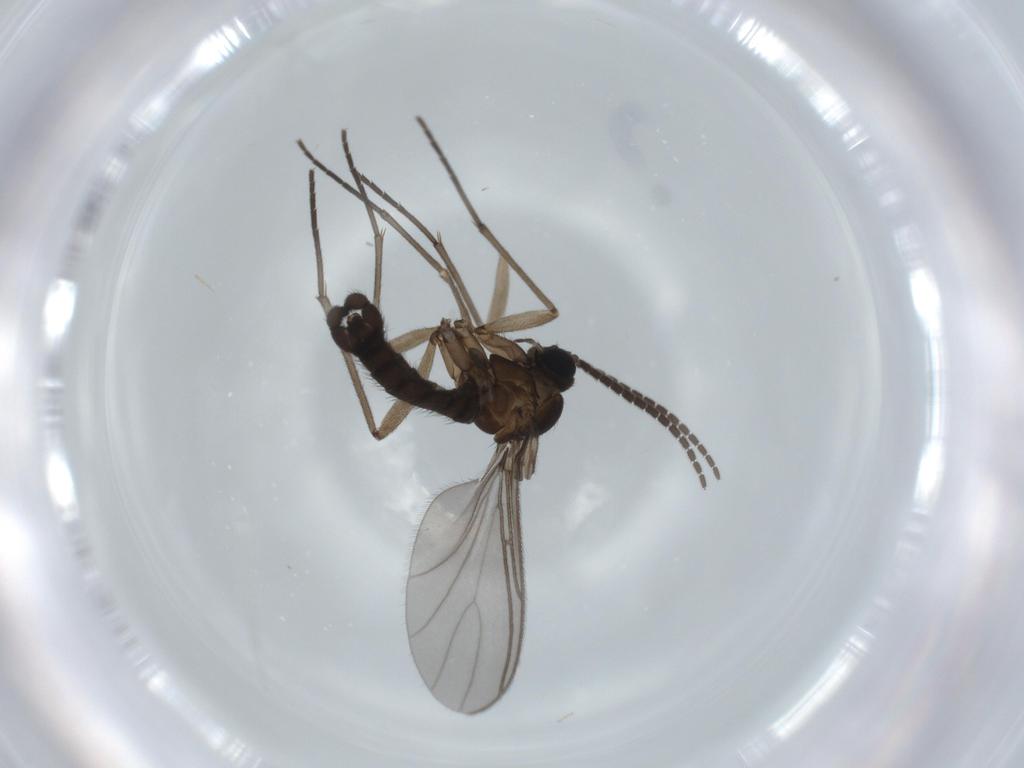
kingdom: Animalia
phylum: Arthropoda
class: Insecta
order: Diptera
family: Sciaridae
